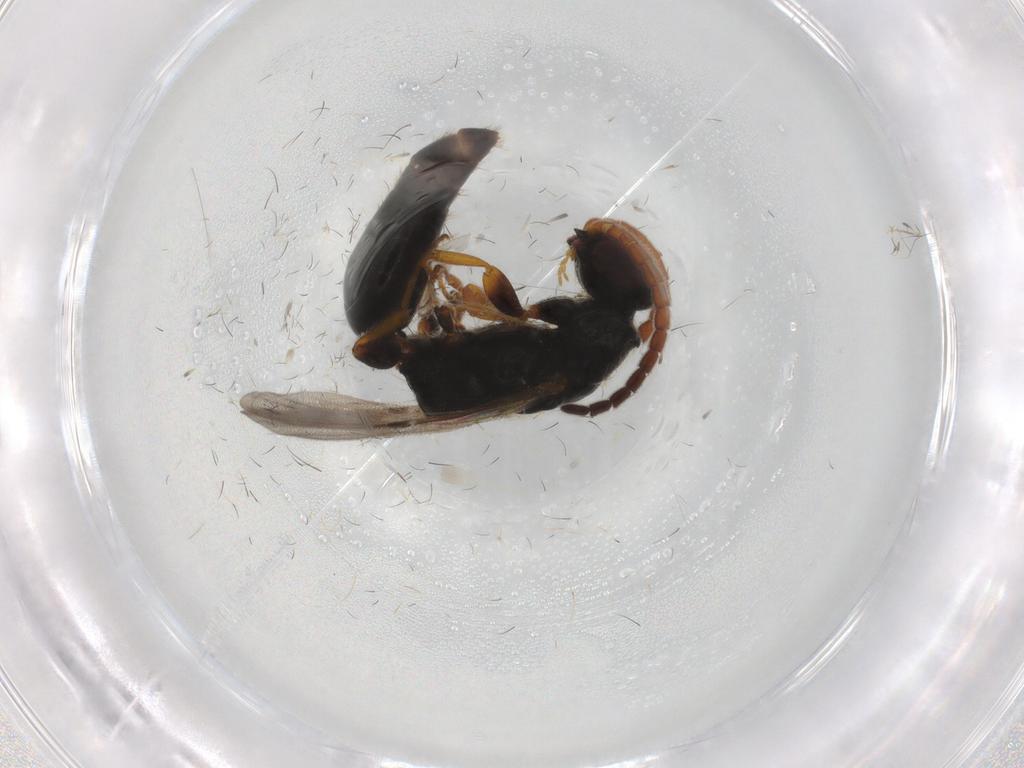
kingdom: Animalia
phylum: Arthropoda
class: Insecta
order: Hymenoptera
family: Bethylidae
